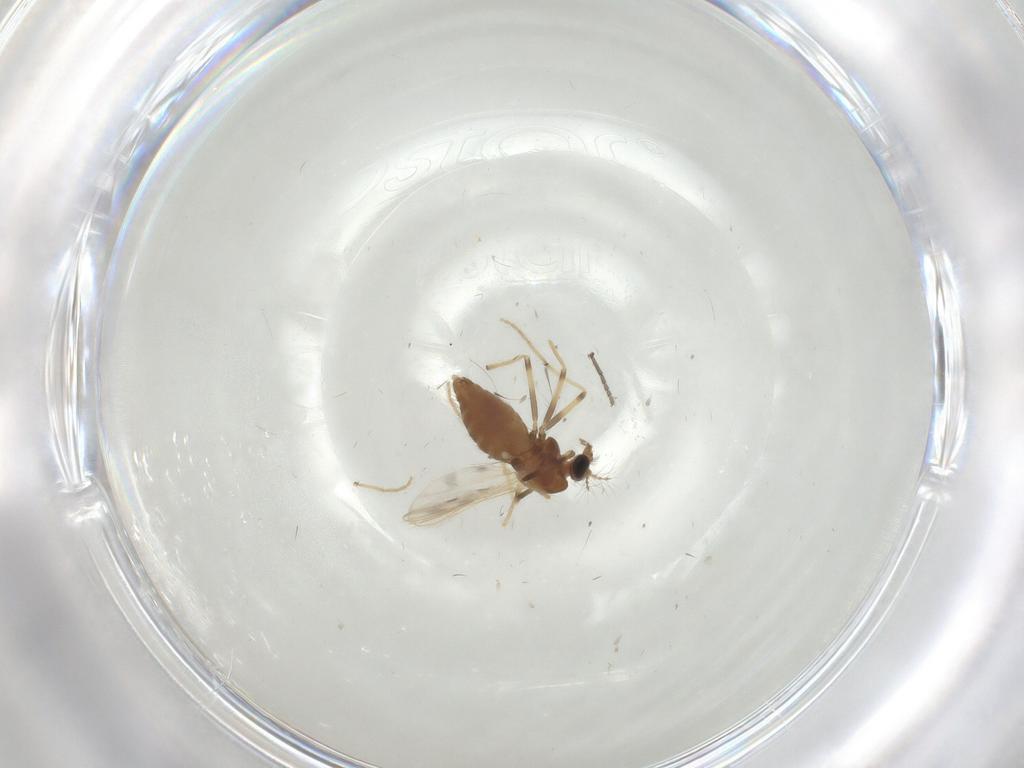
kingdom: Animalia
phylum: Arthropoda
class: Insecta
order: Diptera
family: Chironomidae
